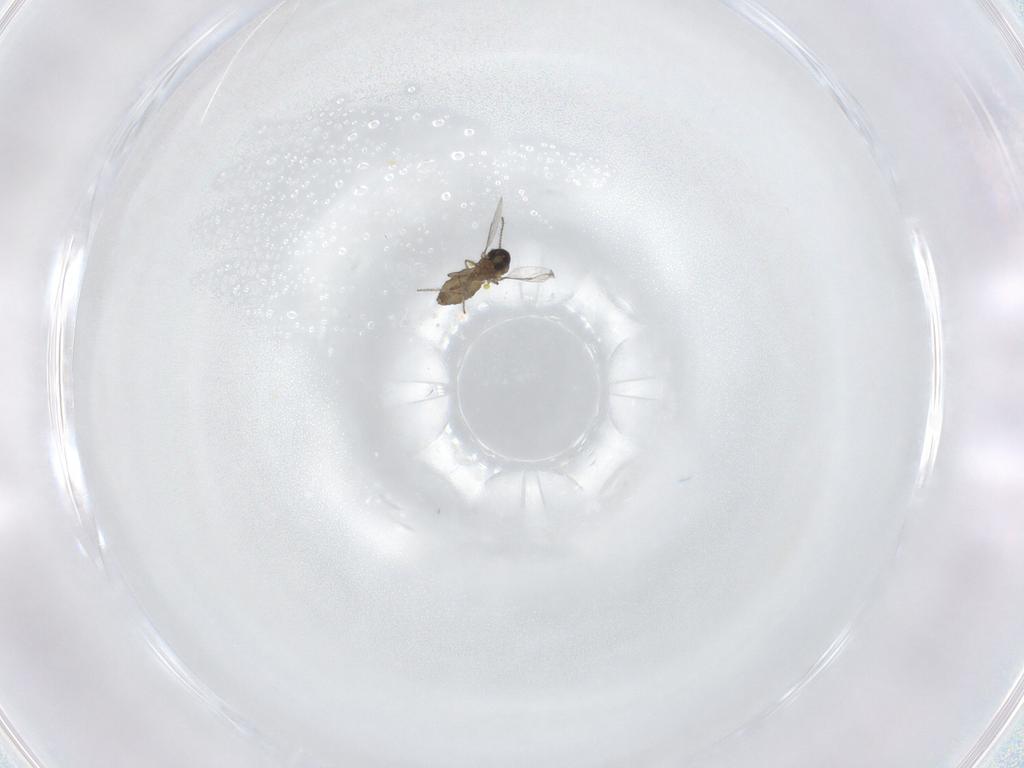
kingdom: Animalia
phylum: Arthropoda
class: Insecta
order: Diptera
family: Ceratopogonidae
